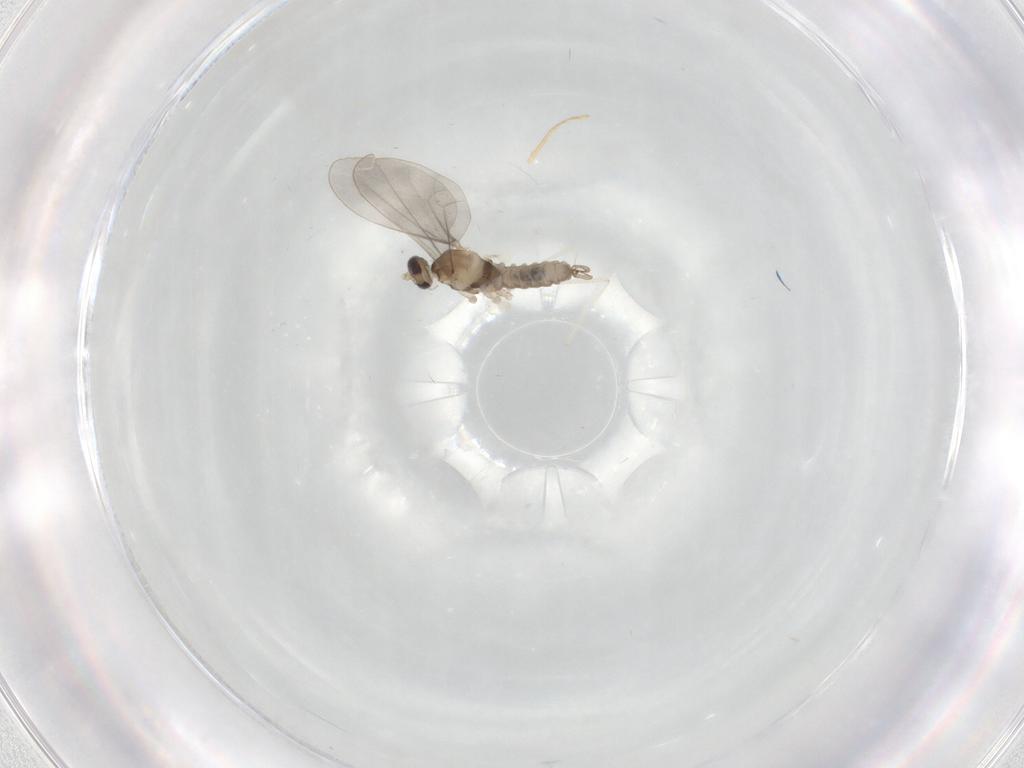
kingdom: Animalia
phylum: Arthropoda
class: Insecta
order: Diptera
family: Cecidomyiidae
